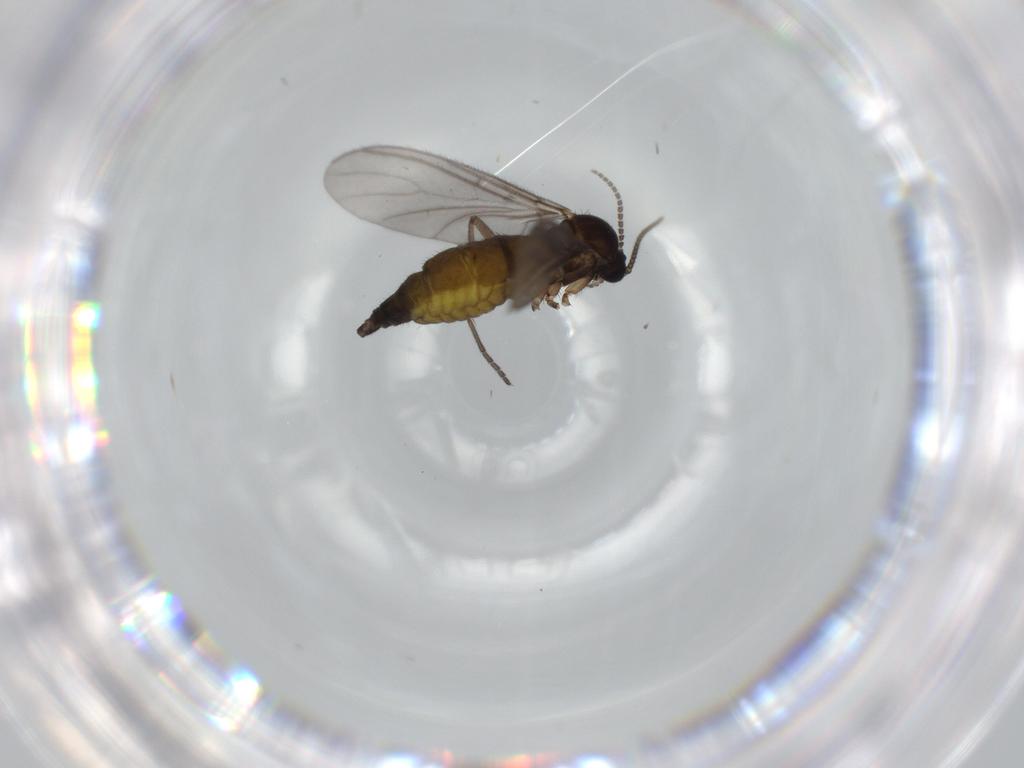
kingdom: Animalia
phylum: Arthropoda
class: Insecta
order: Diptera
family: Sciaridae
